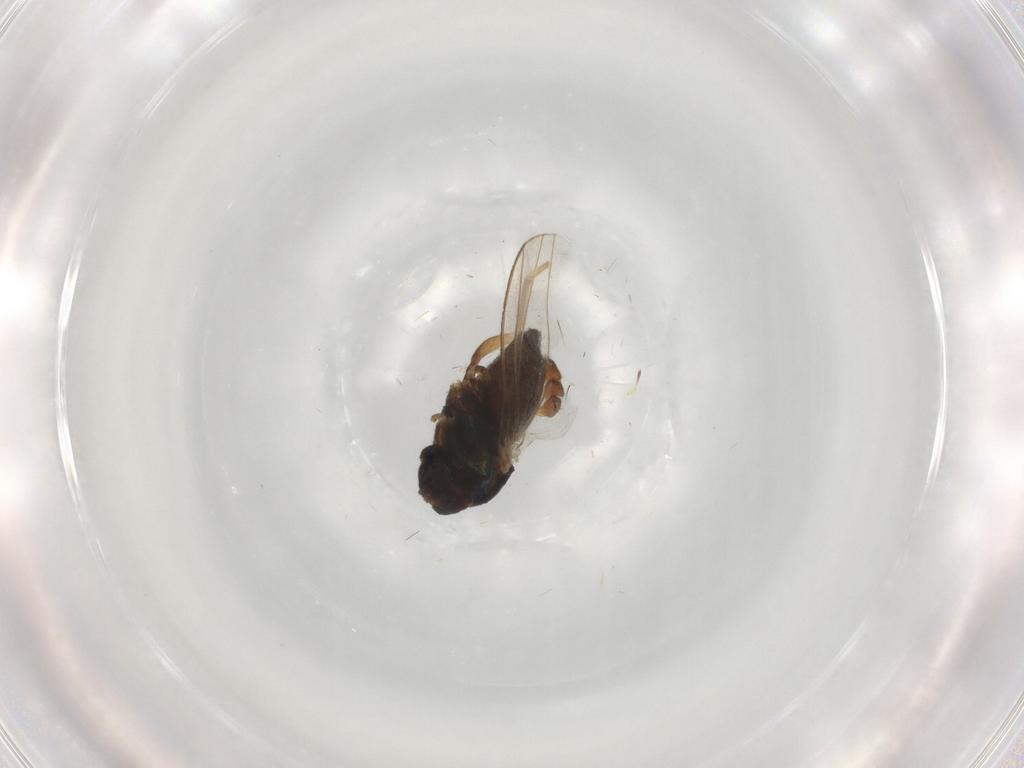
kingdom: Animalia
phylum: Arthropoda
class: Insecta
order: Diptera
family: Dolichopodidae
